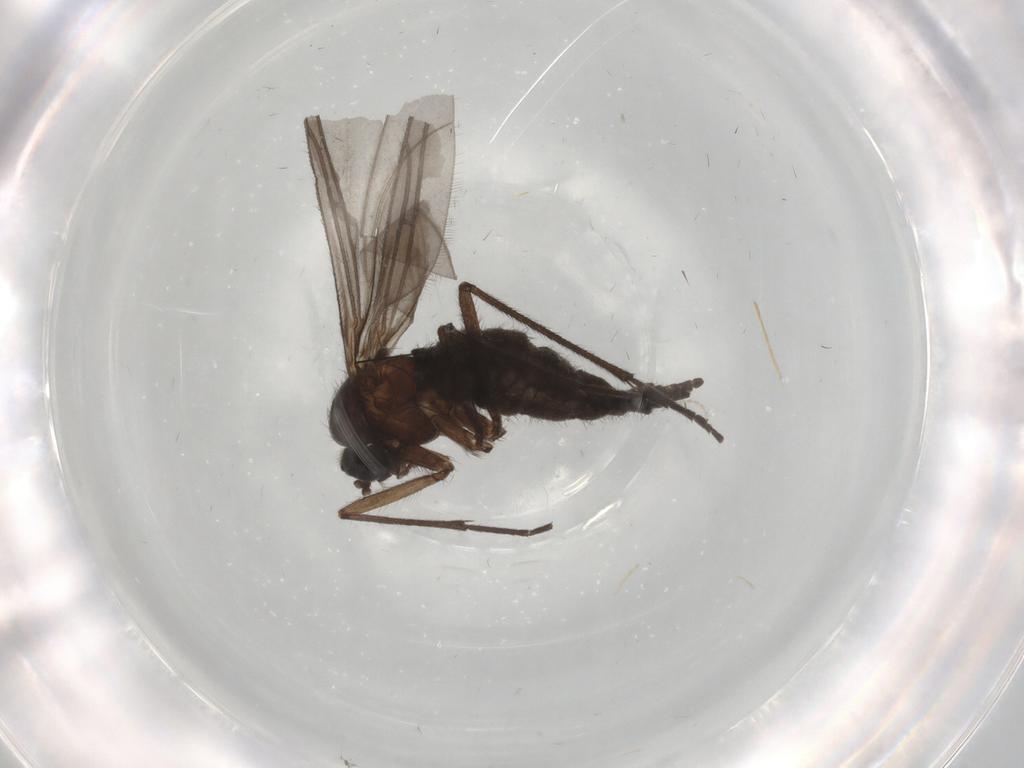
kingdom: Animalia
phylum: Arthropoda
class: Insecta
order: Diptera
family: Sciaridae
